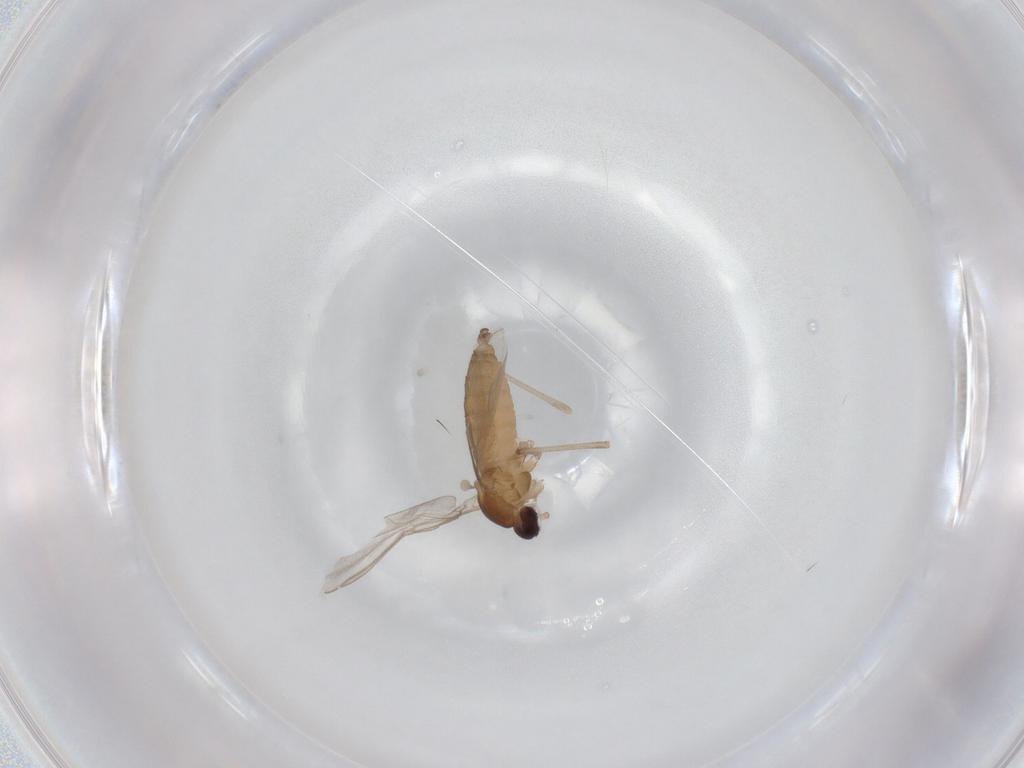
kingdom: Animalia
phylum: Arthropoda
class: Insecta
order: Diptera
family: Cecidomyiidae
